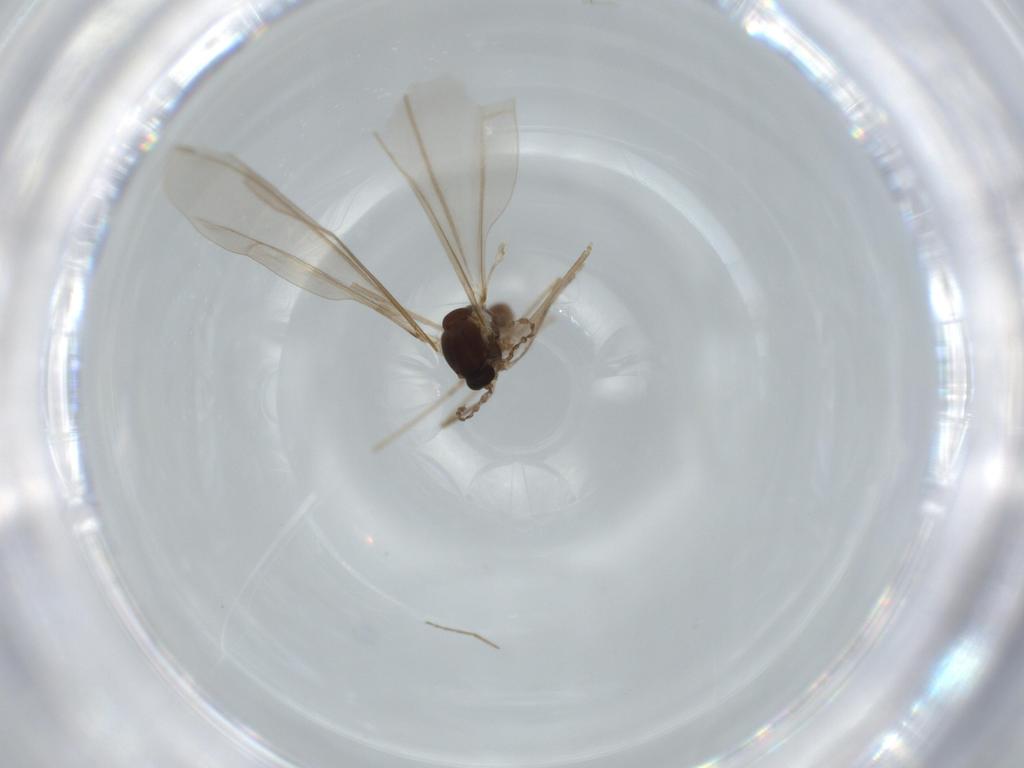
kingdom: Animalia
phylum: Arthropoda
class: Insecta
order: Diptera
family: Cecidomyiidae
